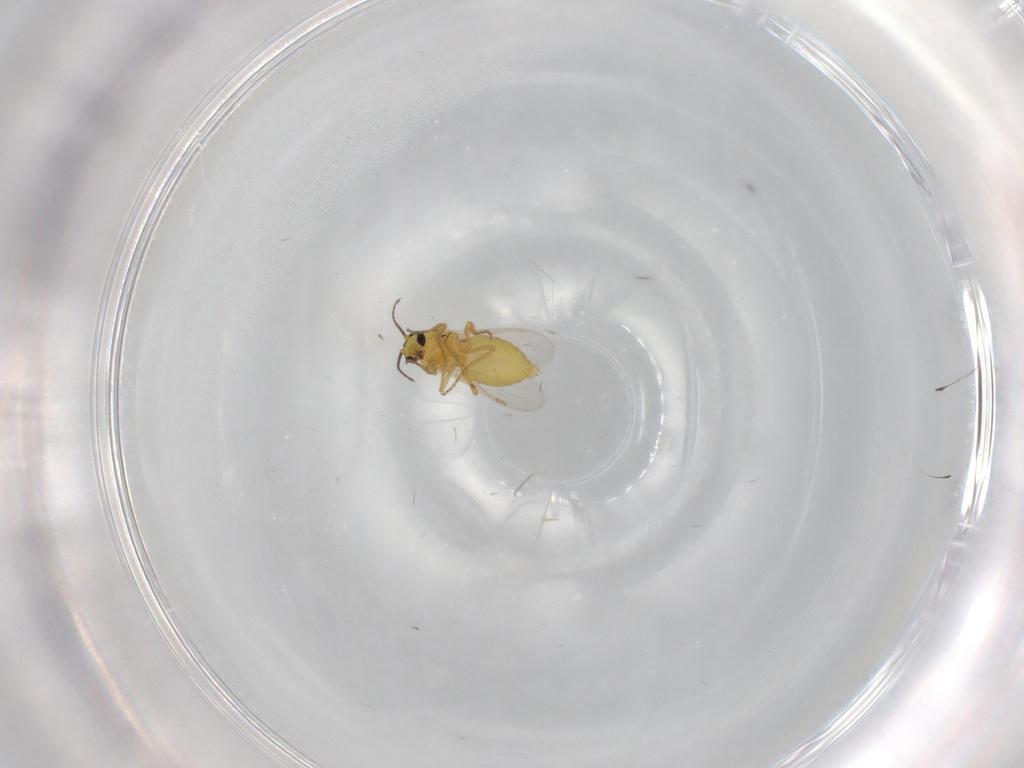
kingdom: Animalia
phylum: Arthropoda
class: Insecta
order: Diptera
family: Ceratopogonidae
